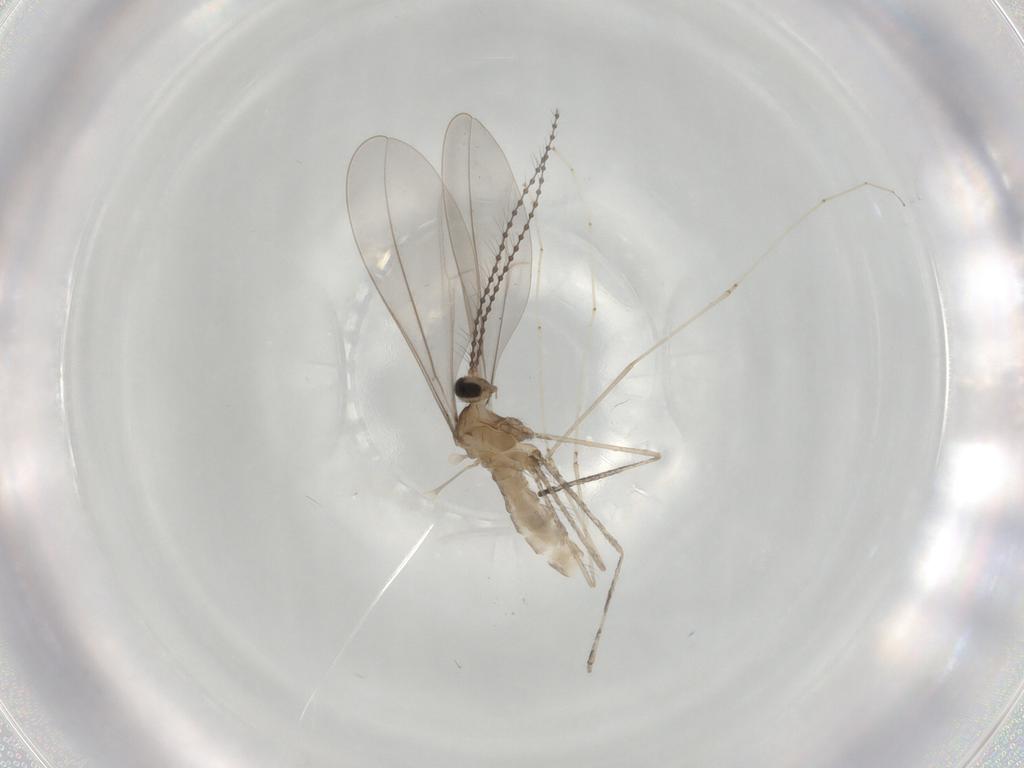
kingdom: Animalia
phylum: Arthropoda
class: Insecta
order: Diptera
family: Cecidomyiidae
